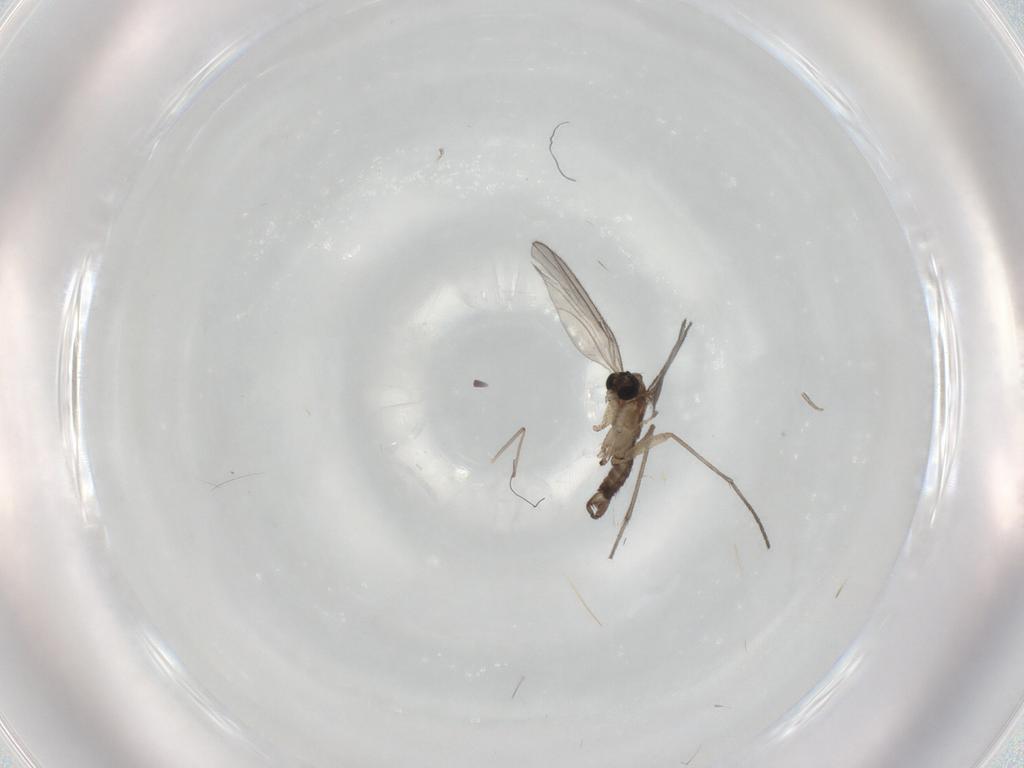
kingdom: Animalia
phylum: Arthropoda
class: Insecta
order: Diptera
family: Sciaridae
